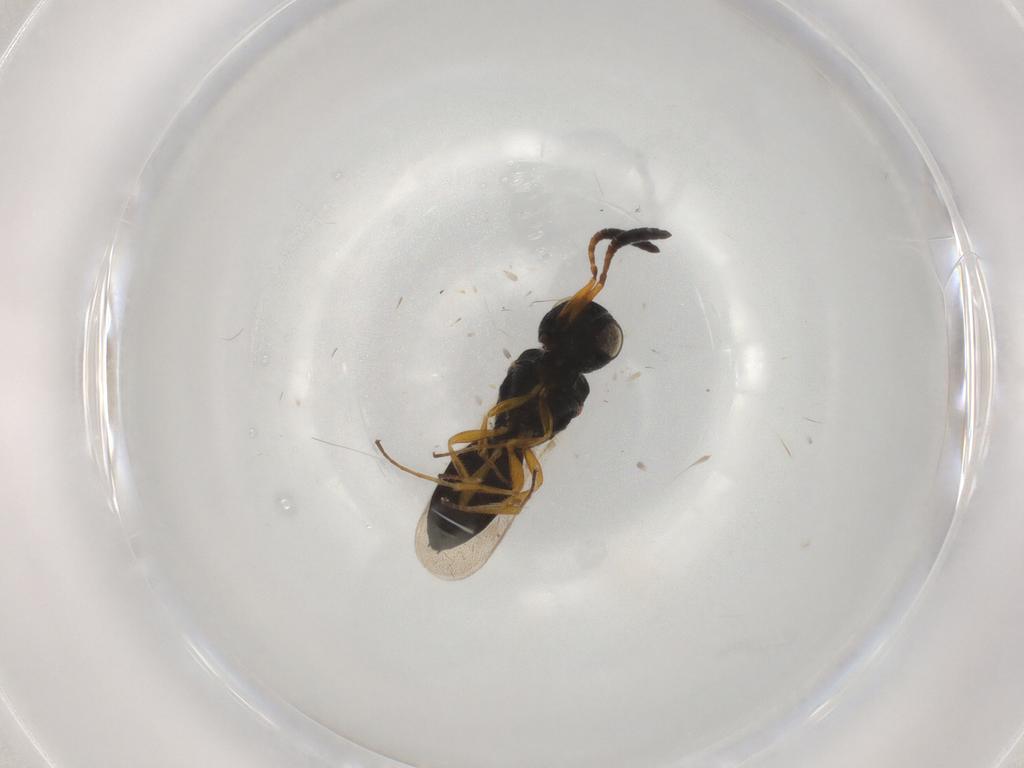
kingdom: Animalia
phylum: Arthropoda
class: Insecta
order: Hymenoptera
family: Scelionidae
